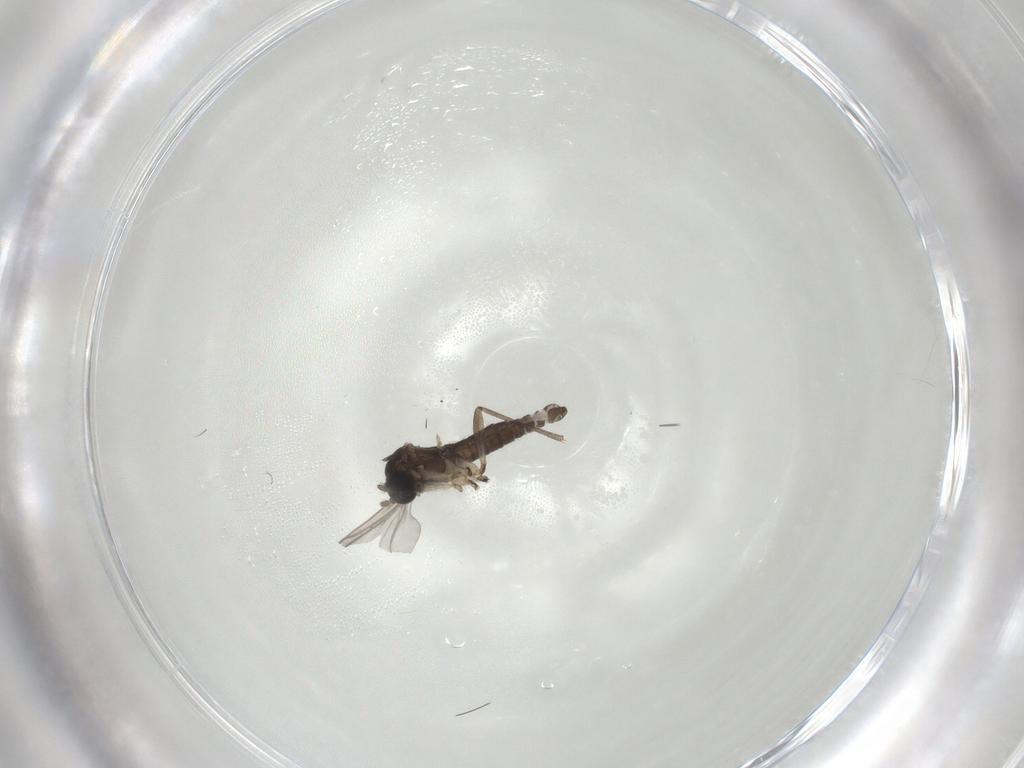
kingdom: Animalia
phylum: Arthropoda
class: Insecta
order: Diptera
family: Sciaridae
